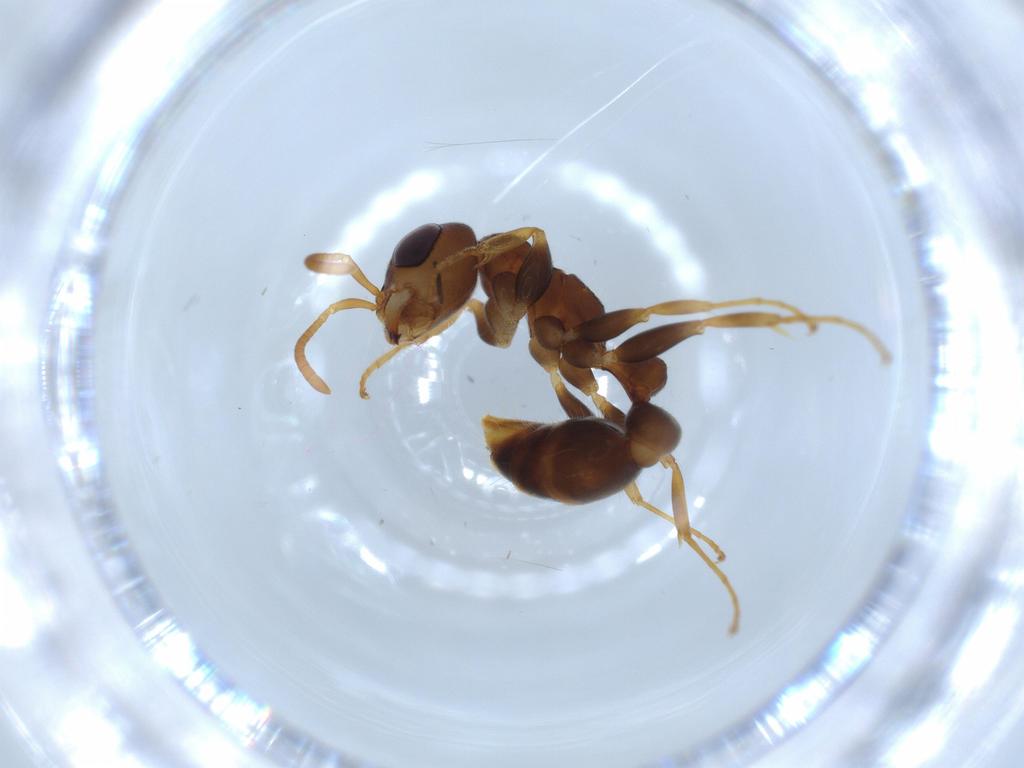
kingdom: Animalia
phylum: Arthropoda
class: Insecta
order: Hymenoptera
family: Formicidae
